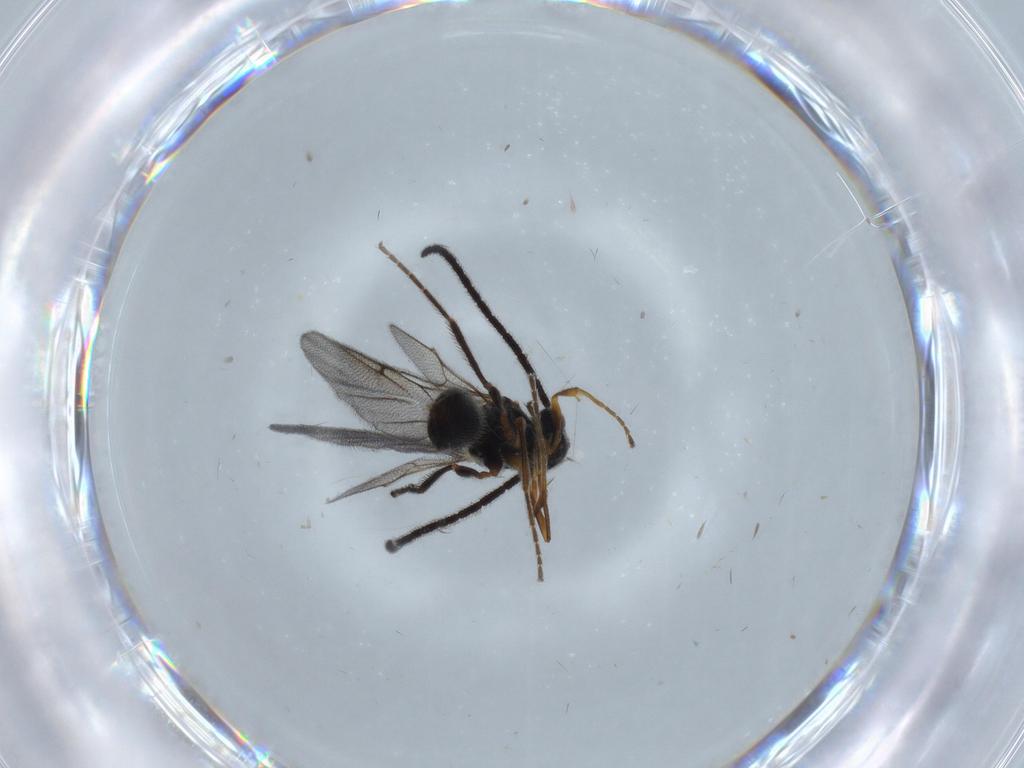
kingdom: Animalia
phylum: Arthropoda
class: Insecta
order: Hymenoptera
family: Diapriidae
